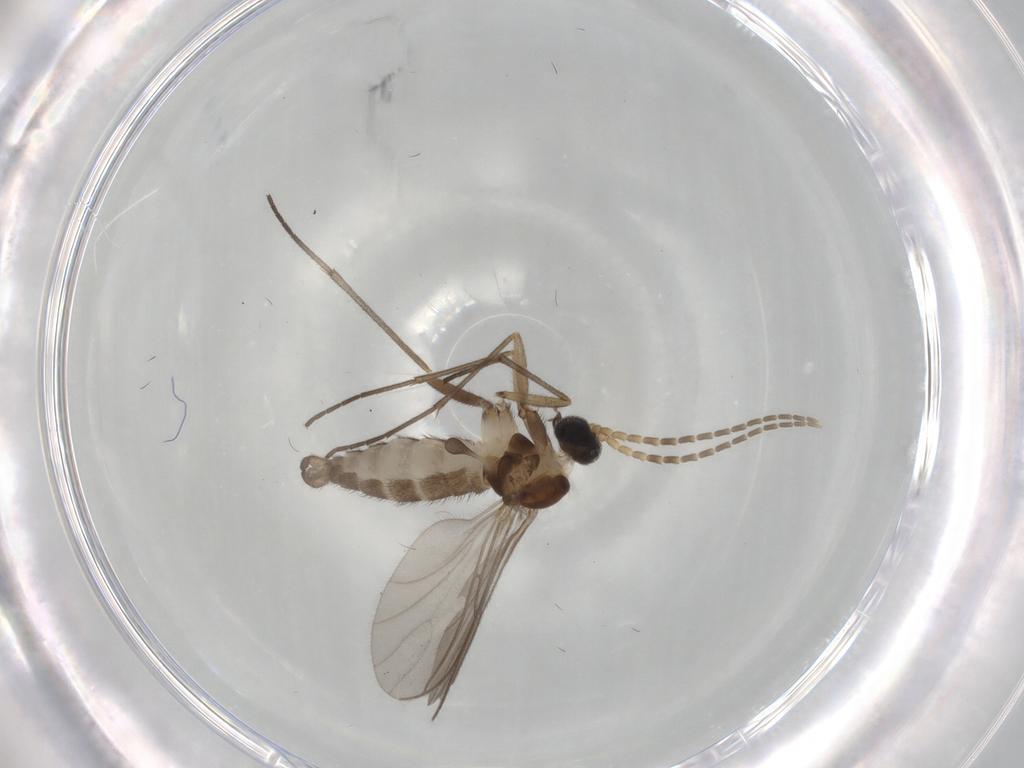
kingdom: Animalia
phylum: Arthropoda
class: Insecta
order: Diptera
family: Sciaridae
